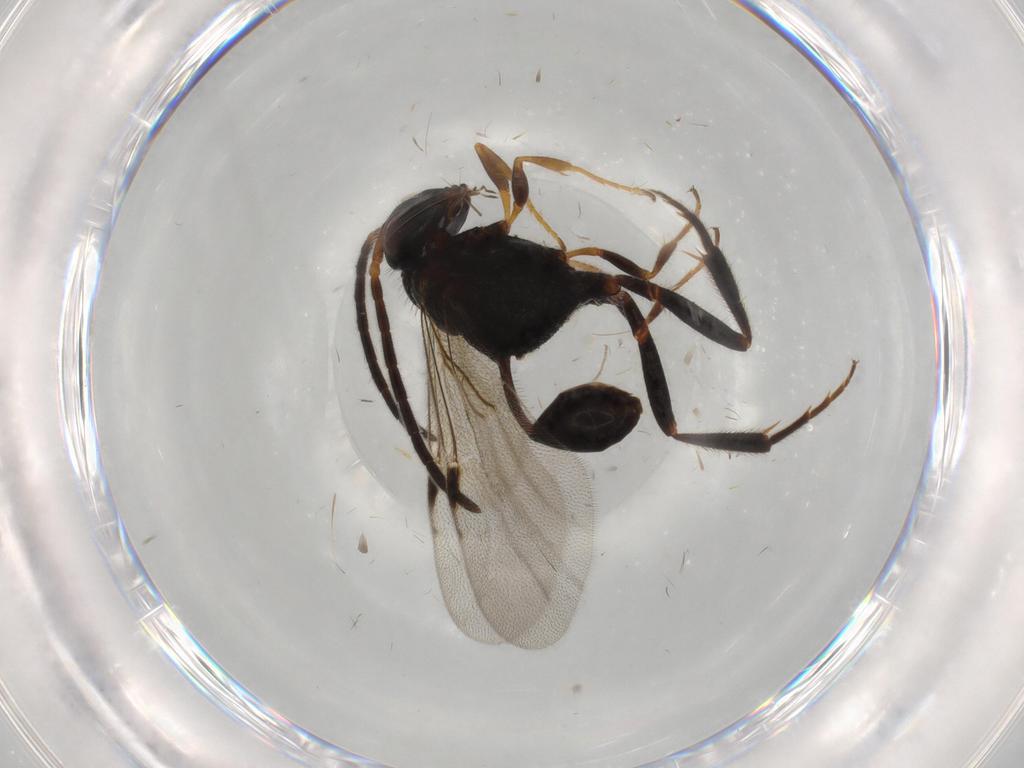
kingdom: Animalia
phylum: Arthropoda
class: Insecta
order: Hymenoptera
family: Evaniidae
